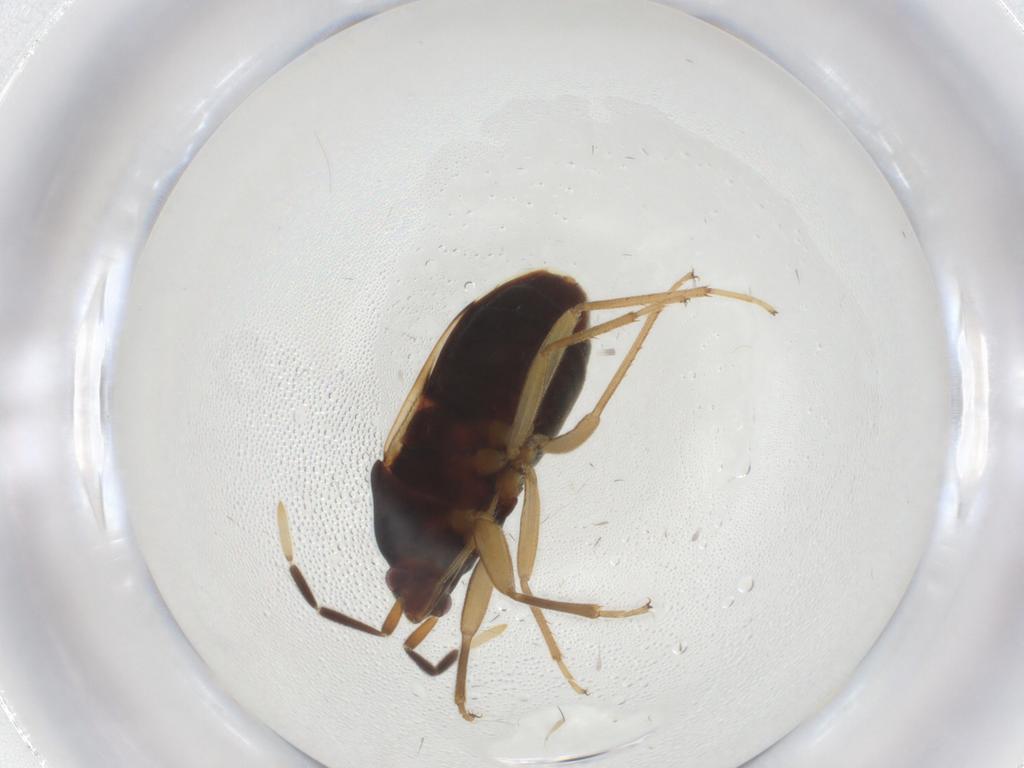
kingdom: Animalia
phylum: Arthropoda
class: Insecta
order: Hemiptera
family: Rhyparochromidae
